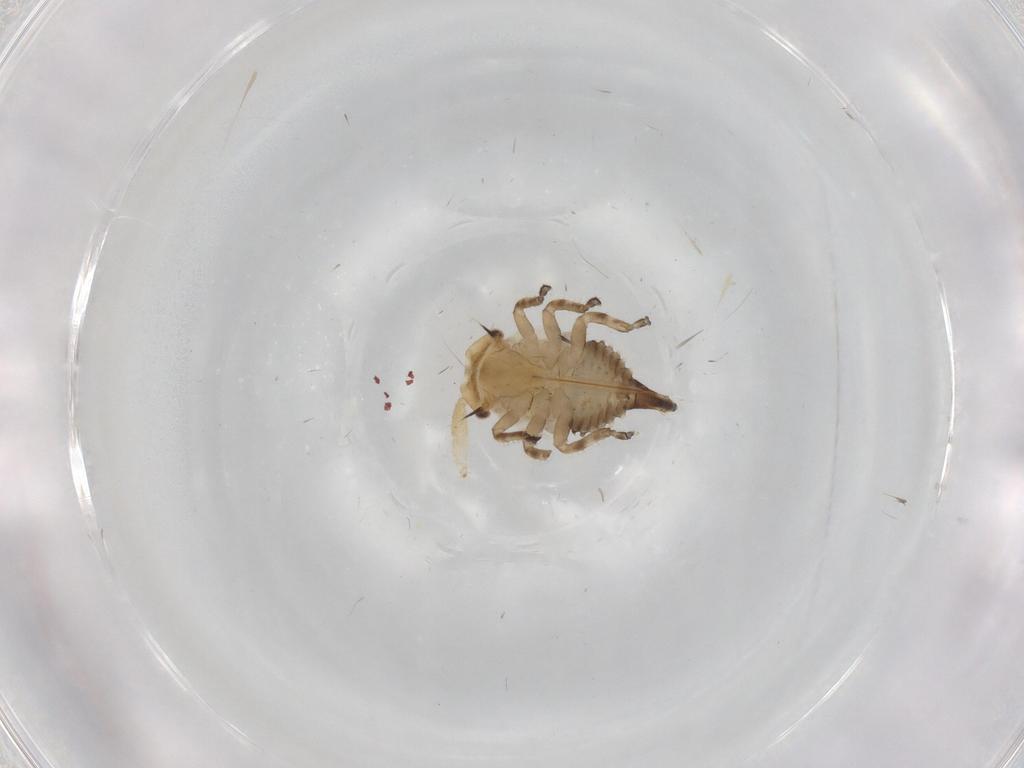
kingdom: Animalia
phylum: Arthropoda
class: Insecta
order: Hemiptera
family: Membracidae
